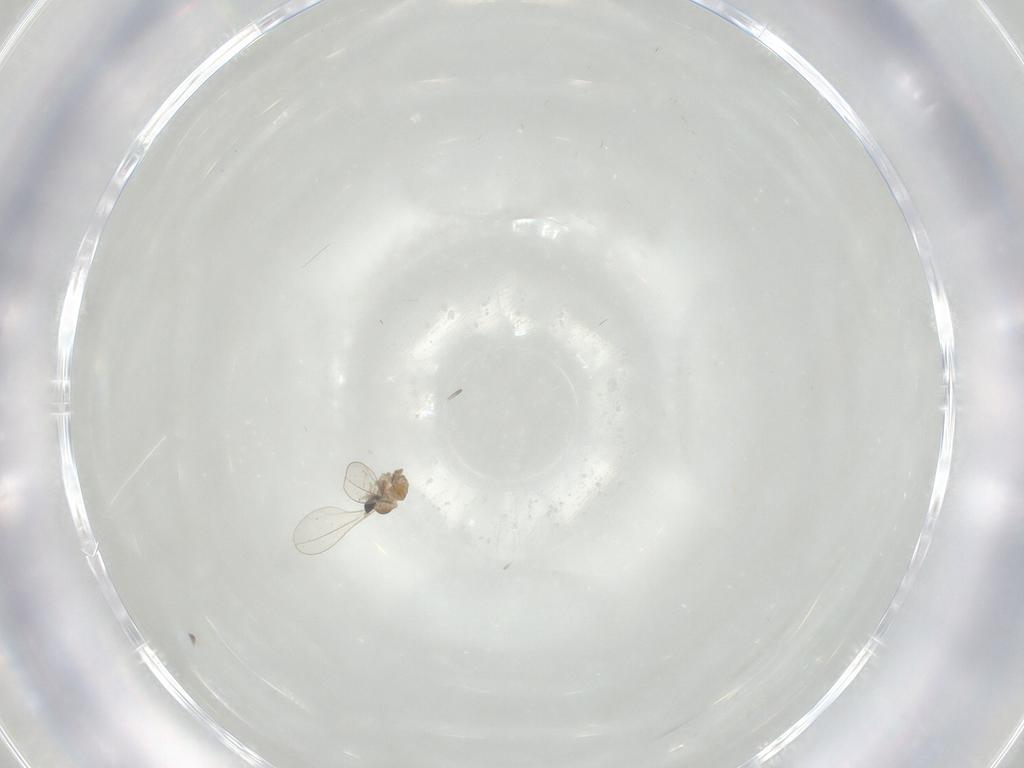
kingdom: Animalia
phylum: Arthropoda
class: Insecta
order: Diptera
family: Cecidomyiidae
